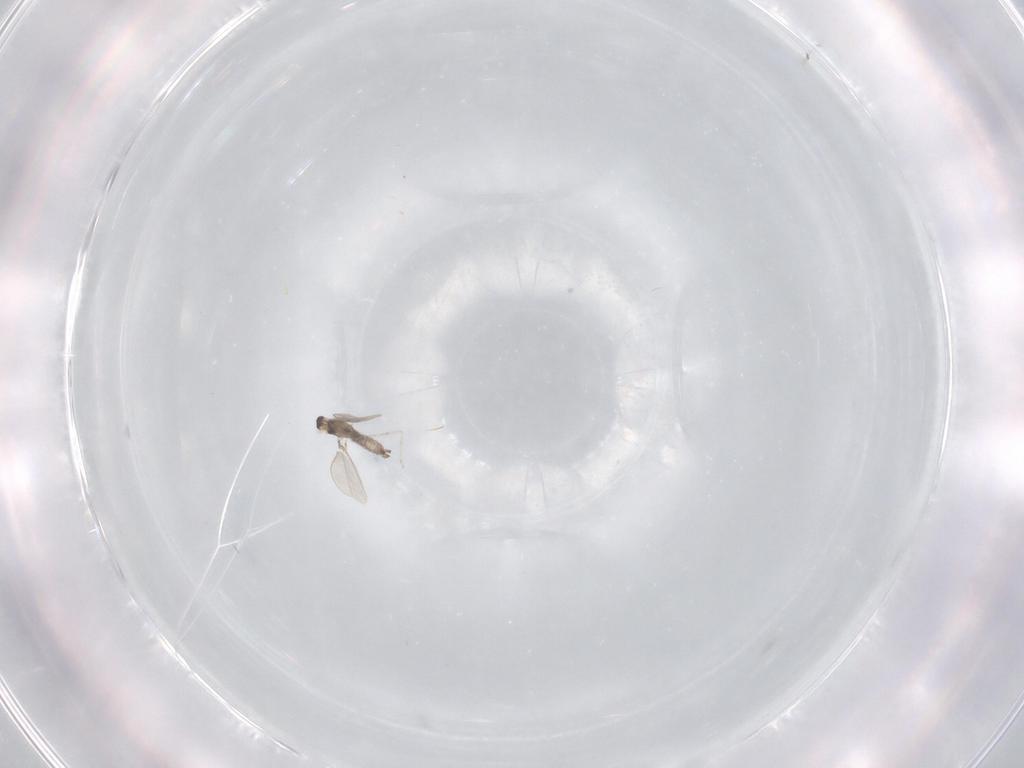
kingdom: Animalia
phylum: Arthropoda
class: Insecta
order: Diptera
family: Cecidomyiidae
